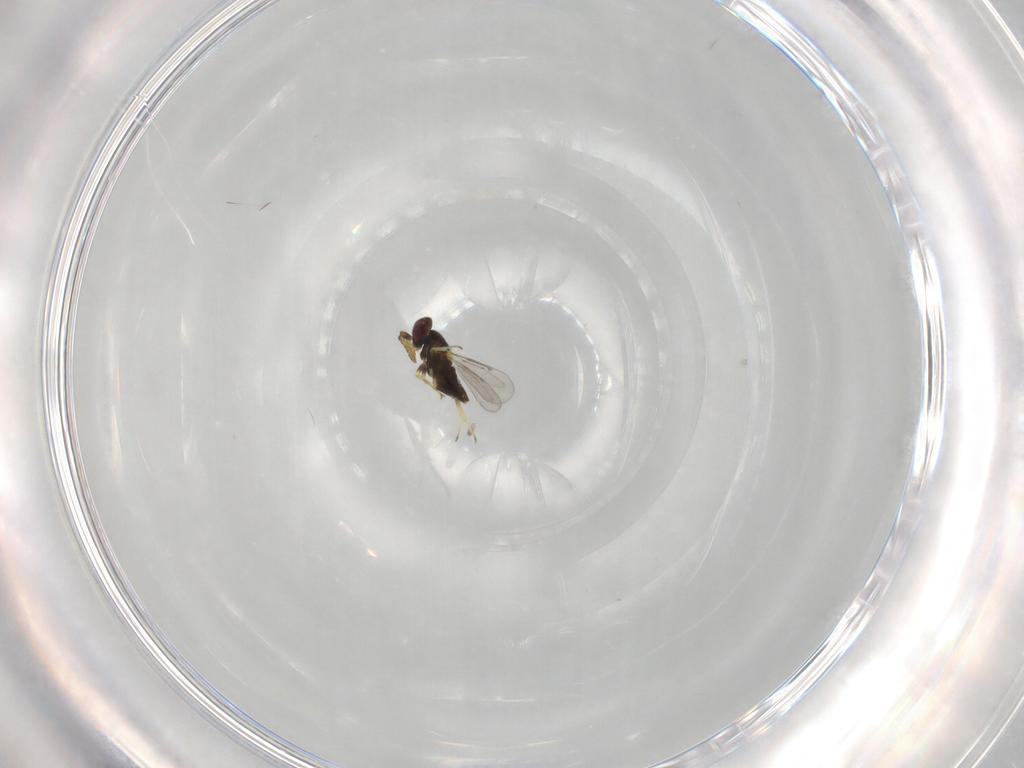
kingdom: Animalia
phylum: Arthropoda
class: Insecta
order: Hymenoptera
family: Aphelinidae
